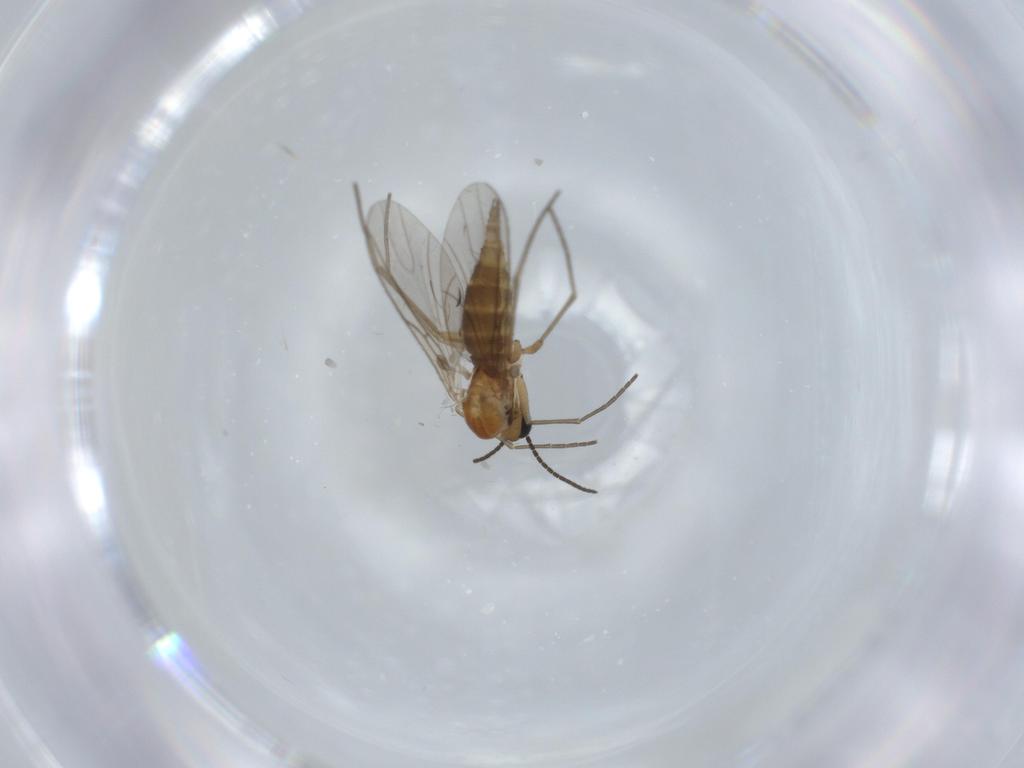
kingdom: Animalia
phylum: Arthropoda
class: Insecta
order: Diptera
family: Sciaridae
